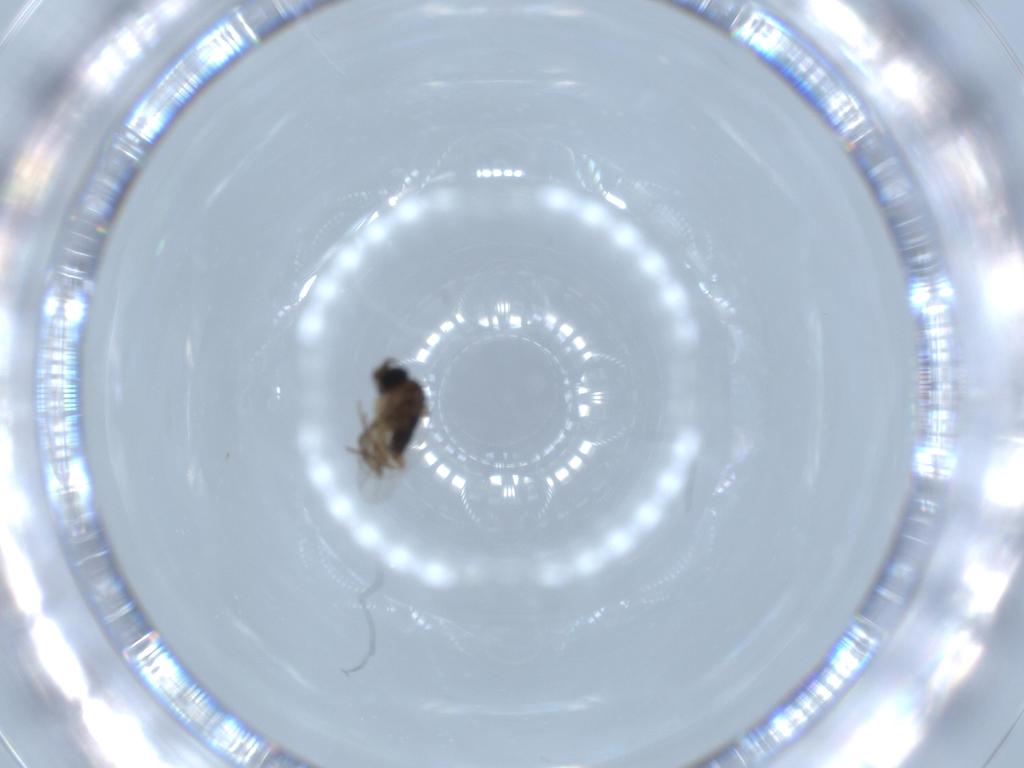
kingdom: Animalia
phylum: Arthropoda
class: Insecta
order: Diptera
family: Phoridae
